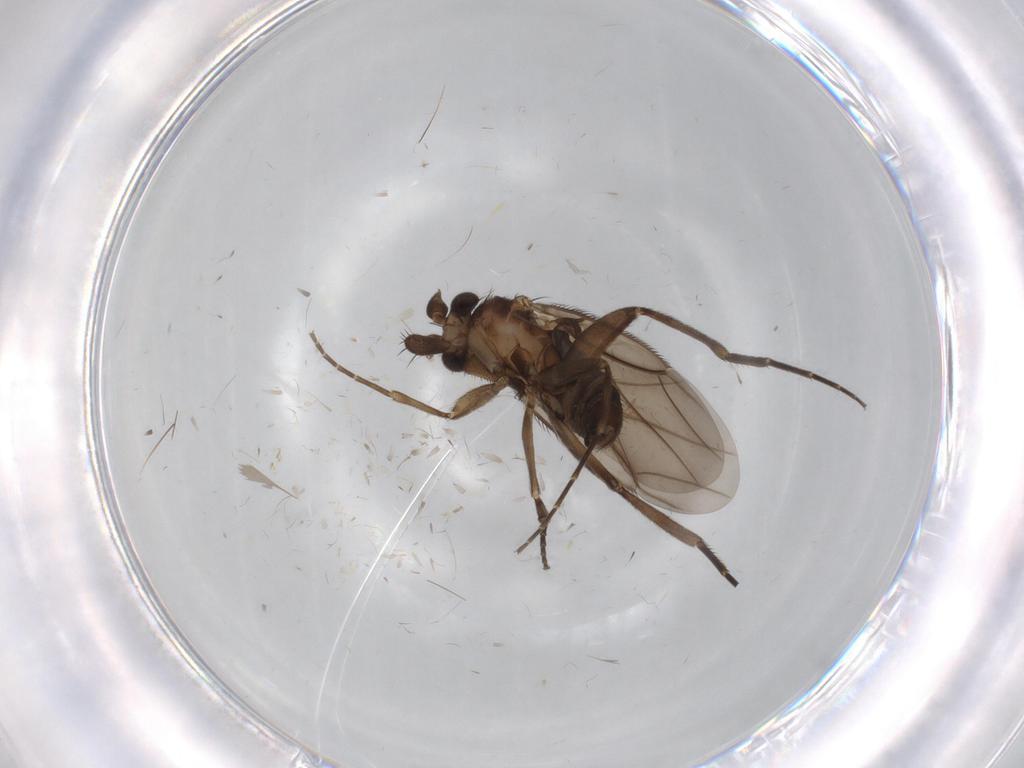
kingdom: Animalia
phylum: Arthropoda
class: Insecta
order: Diptera
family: Phoridae
